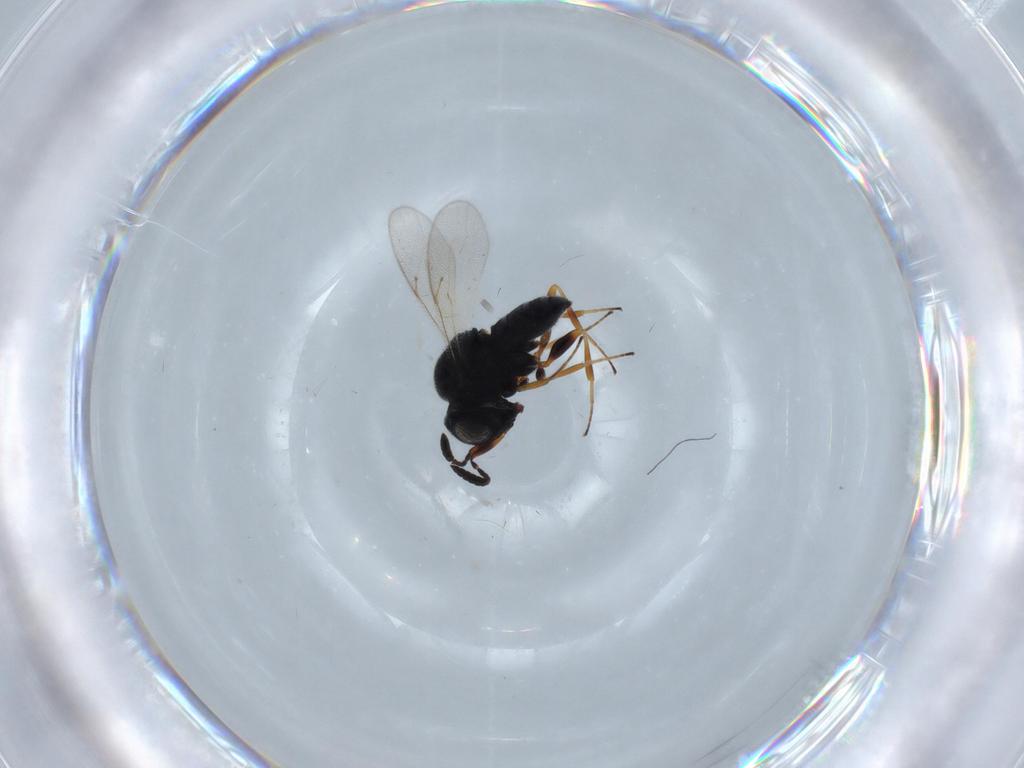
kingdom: Animalia
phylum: Arthropoda
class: Insecta
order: Hymenoptera
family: Scelionidae
